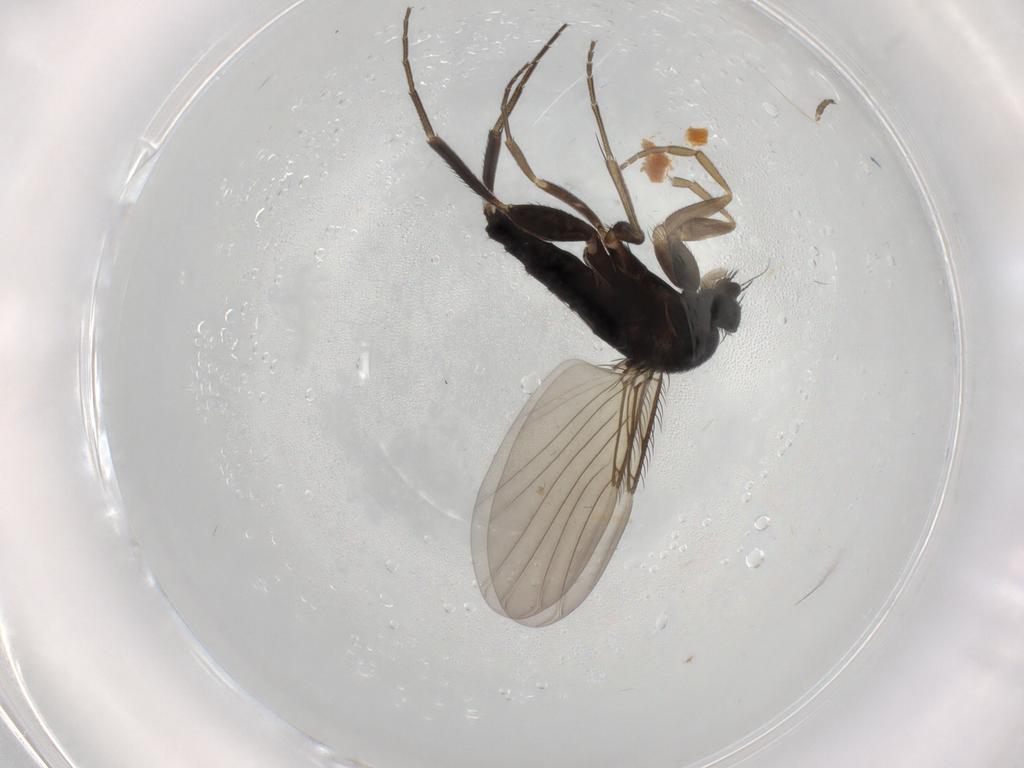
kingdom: Animalia
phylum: Arthropoda
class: Insecta
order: Diptera
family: Phoridae
